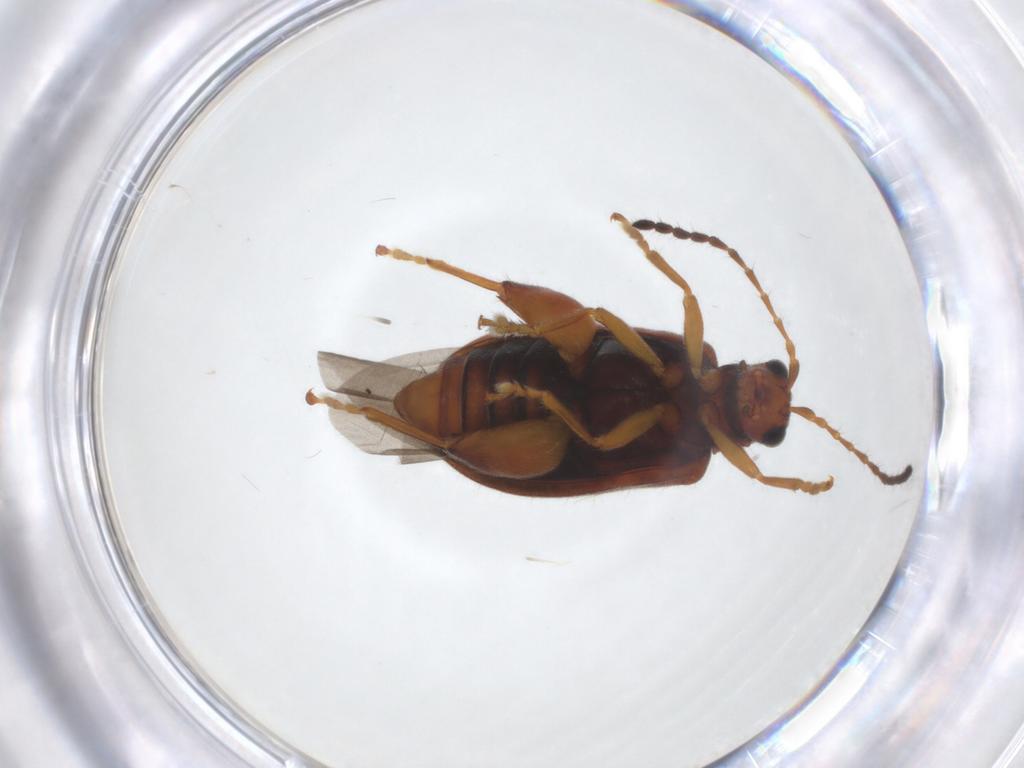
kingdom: Animalia
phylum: Arthropoda
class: Insecta
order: Coleoptera
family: Chrysomelidae
